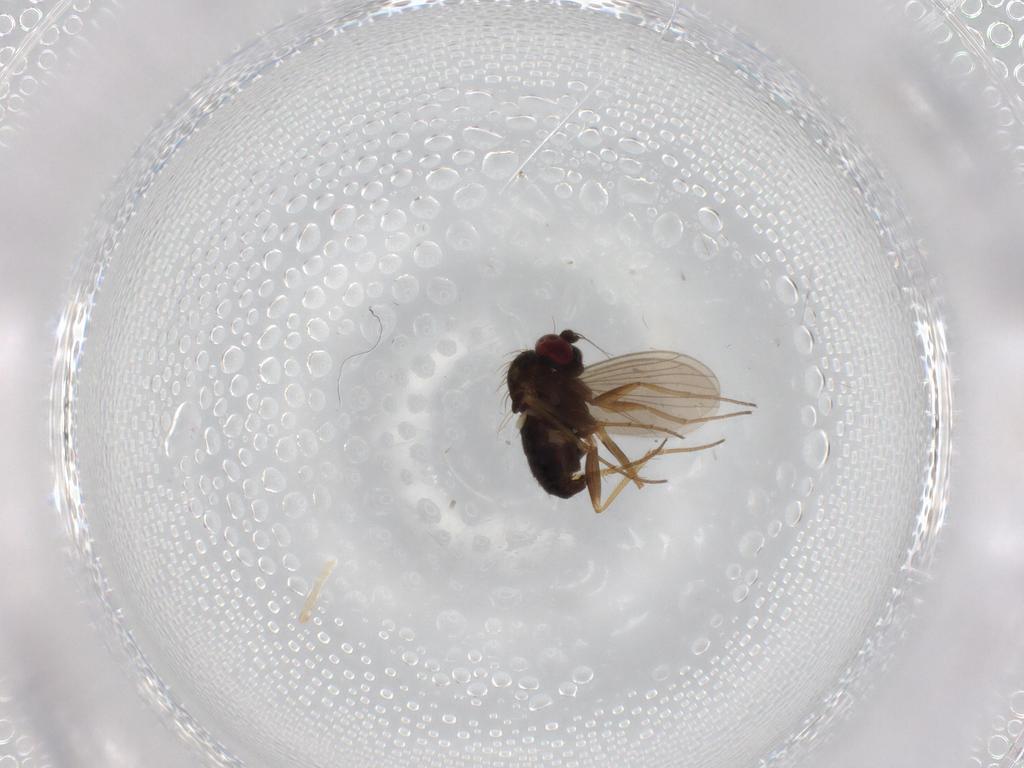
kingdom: Animalia
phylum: Arthropoda
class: Insecta
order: Diptera
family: Dolichopodidae
